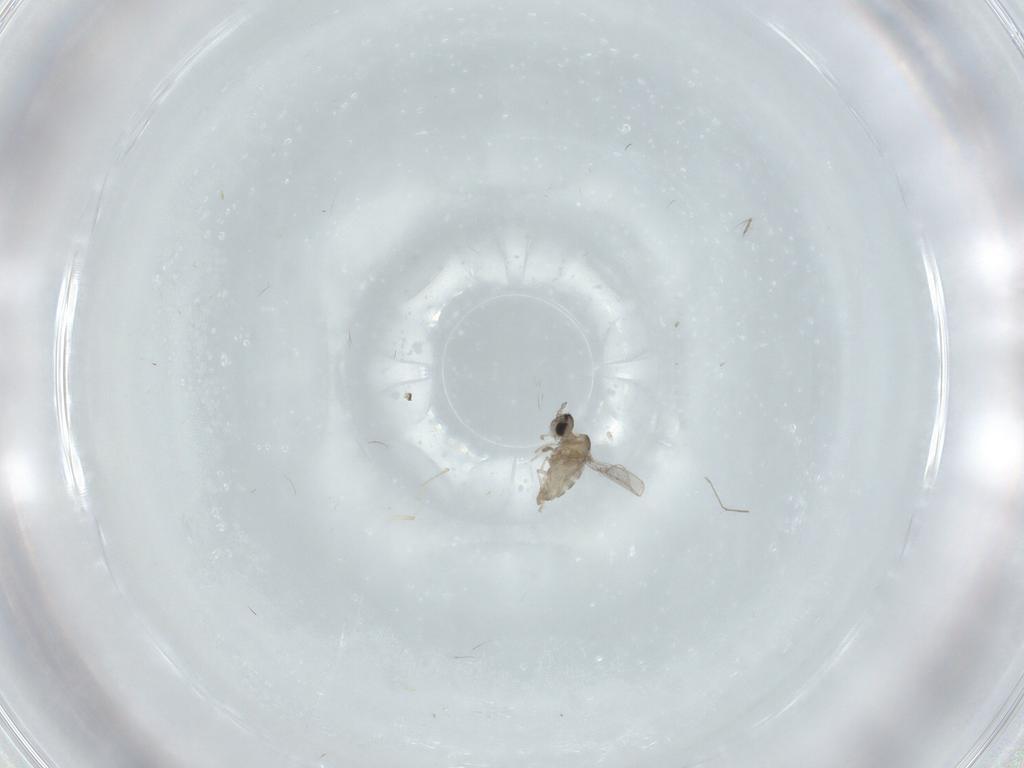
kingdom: Animalia
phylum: Arthropoda
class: Insecta
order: Diptera
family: Cecidomyiidae
